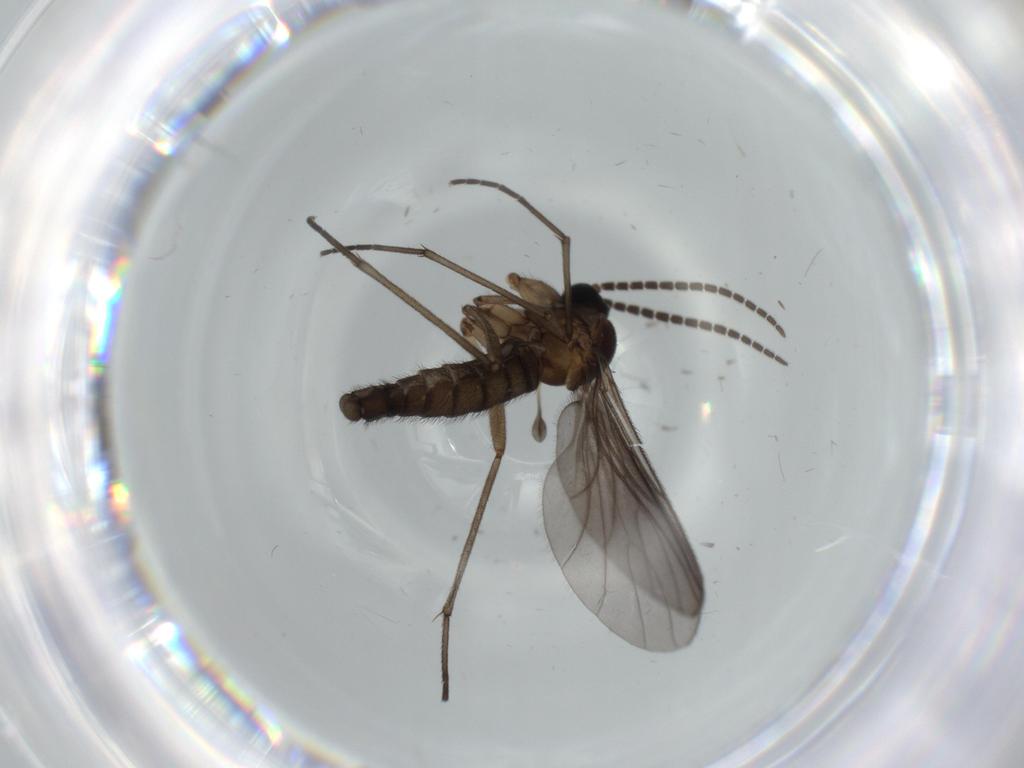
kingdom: Animalia
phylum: Arthropoda
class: Insecta
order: Diptera
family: Sciaridae
